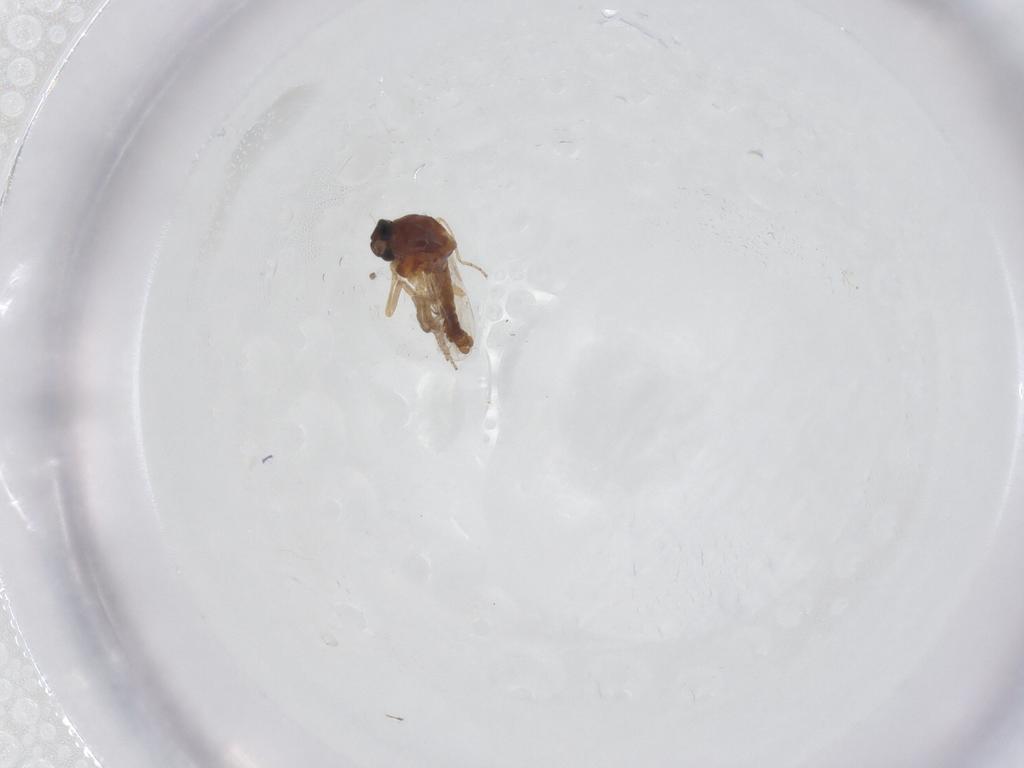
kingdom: Animalia
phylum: Arthropoda
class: Insecta
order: Diptera
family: Ceratopogonidae
